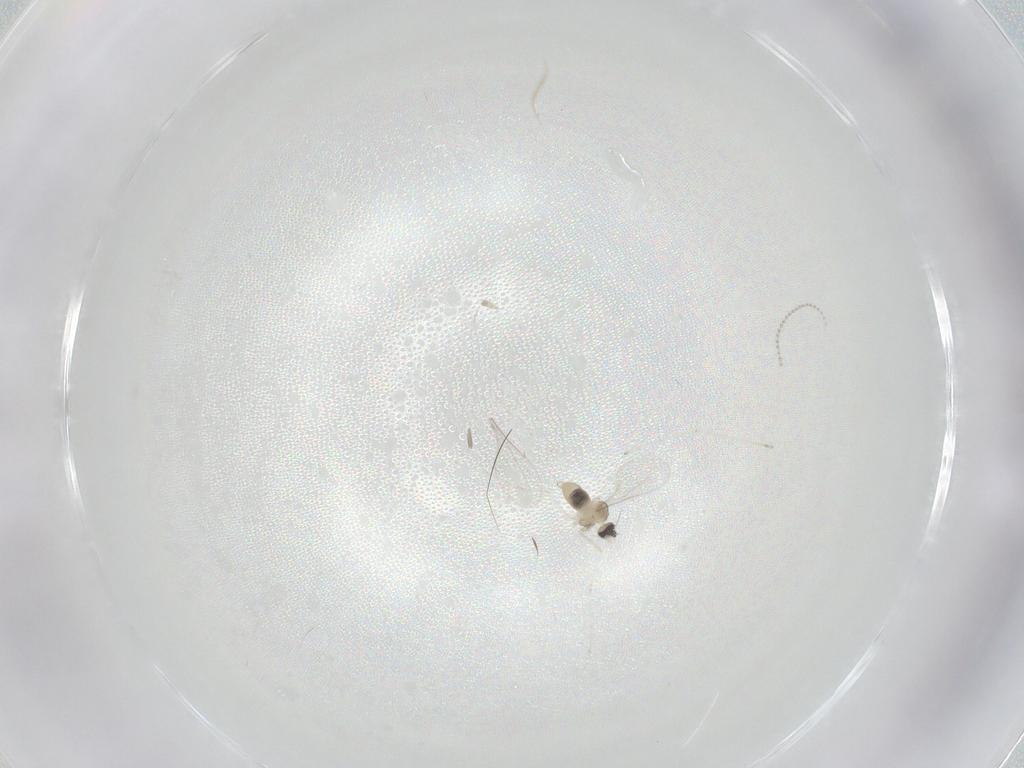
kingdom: Animalia
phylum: Arthropoda
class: Insecta
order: Diptera
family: Cecidomyiidae
